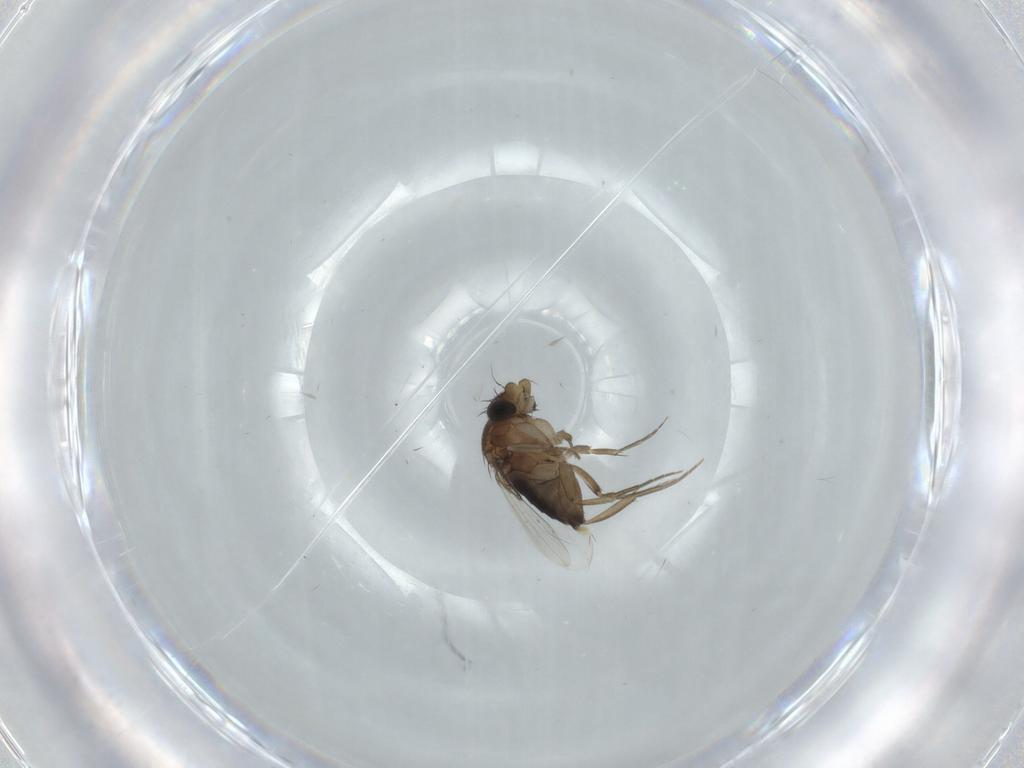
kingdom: Animalia
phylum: Arthropoda
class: Insecta
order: Diptera
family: Phoridae
